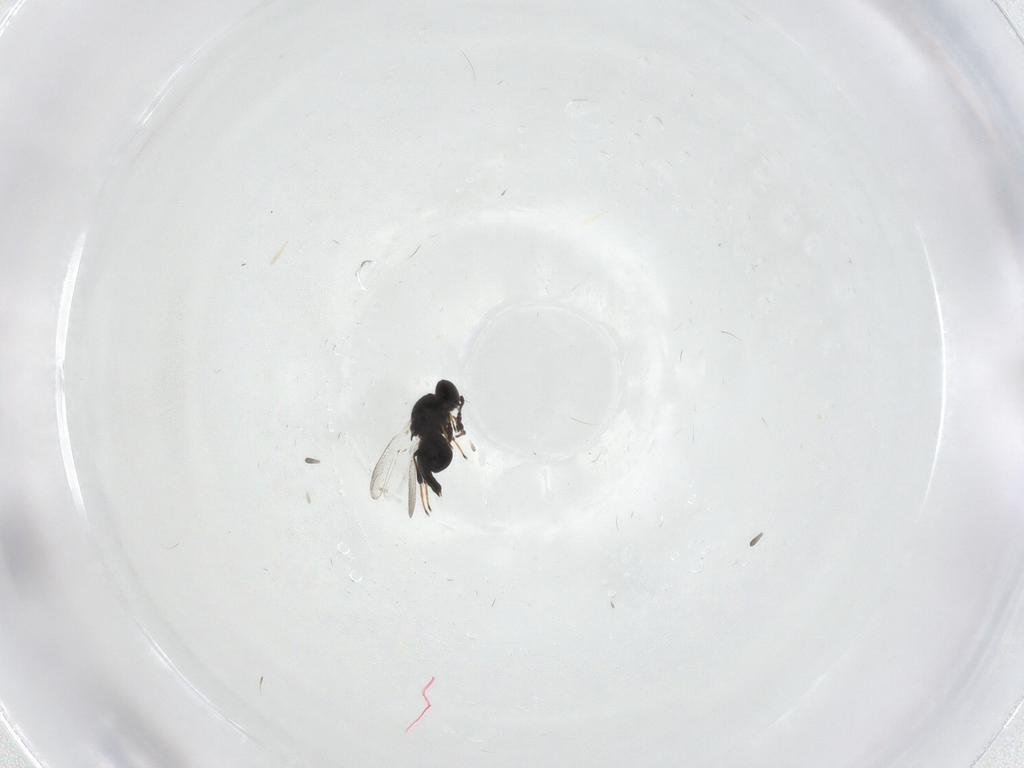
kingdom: Animalia
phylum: Arthropoda
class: Insecta
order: Hymenoptera
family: Platygastridae
